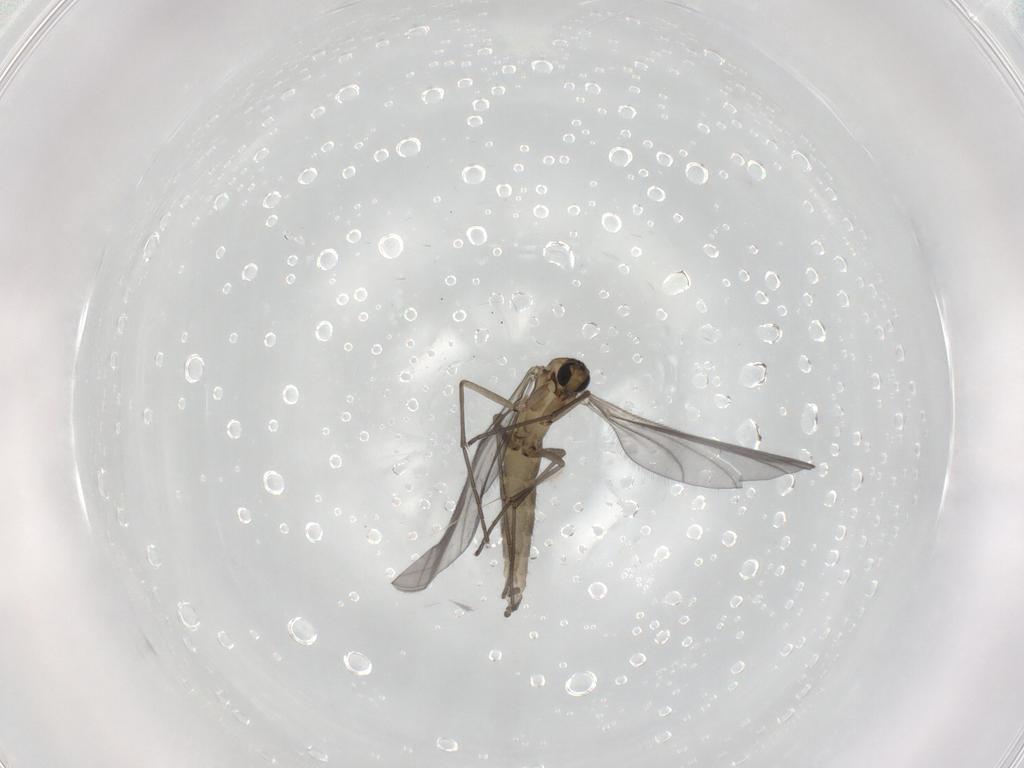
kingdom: Animalia
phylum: Arthropoda
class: Insecta
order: Diptera
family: Sciaridae
